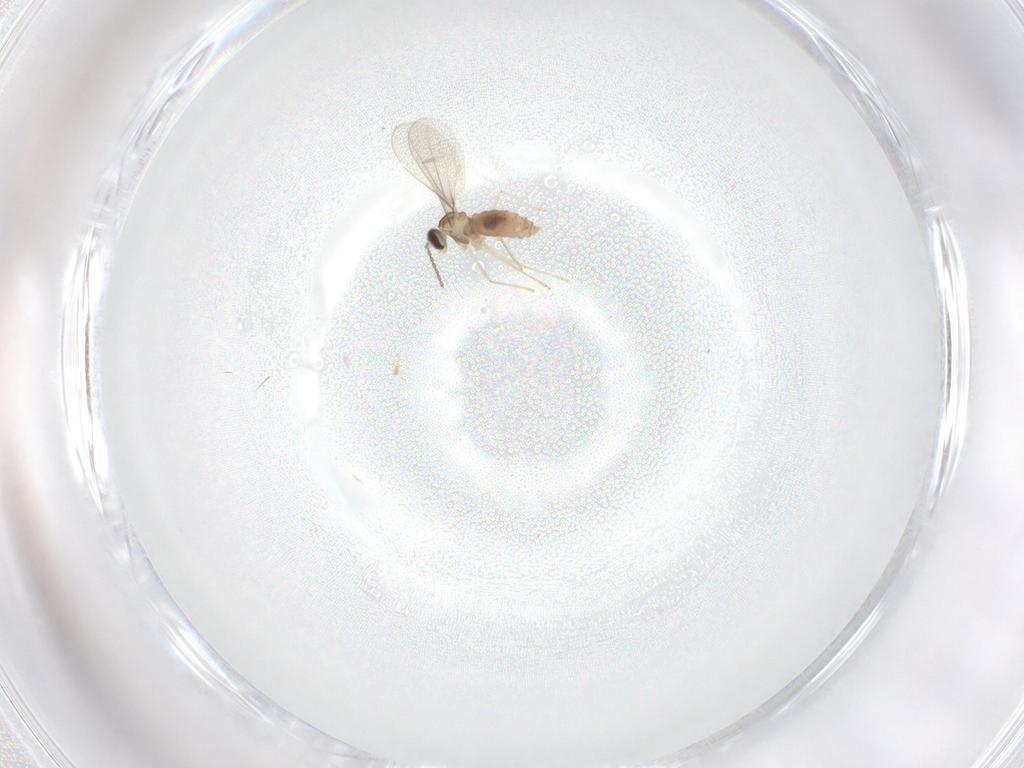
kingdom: Animalia
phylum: Arthropoda
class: Insecta
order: Diptera
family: Cecidomyiidae
